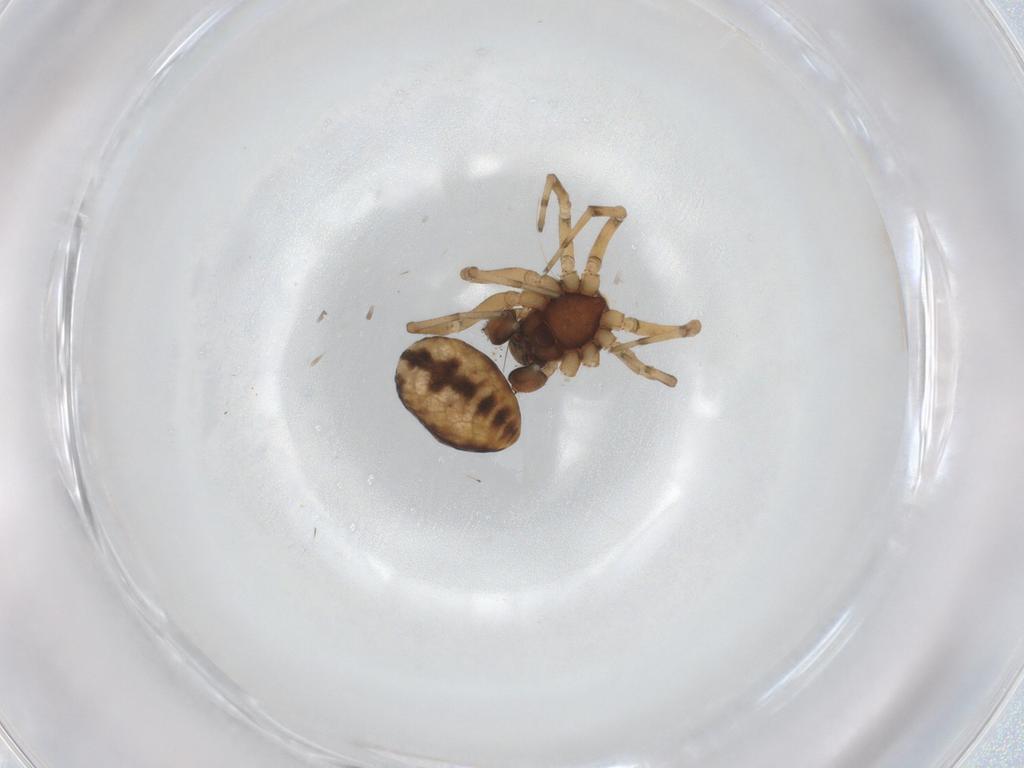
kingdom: Animalia
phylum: Arthropoda
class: Arachnida
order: Araneae
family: Dictynidae
